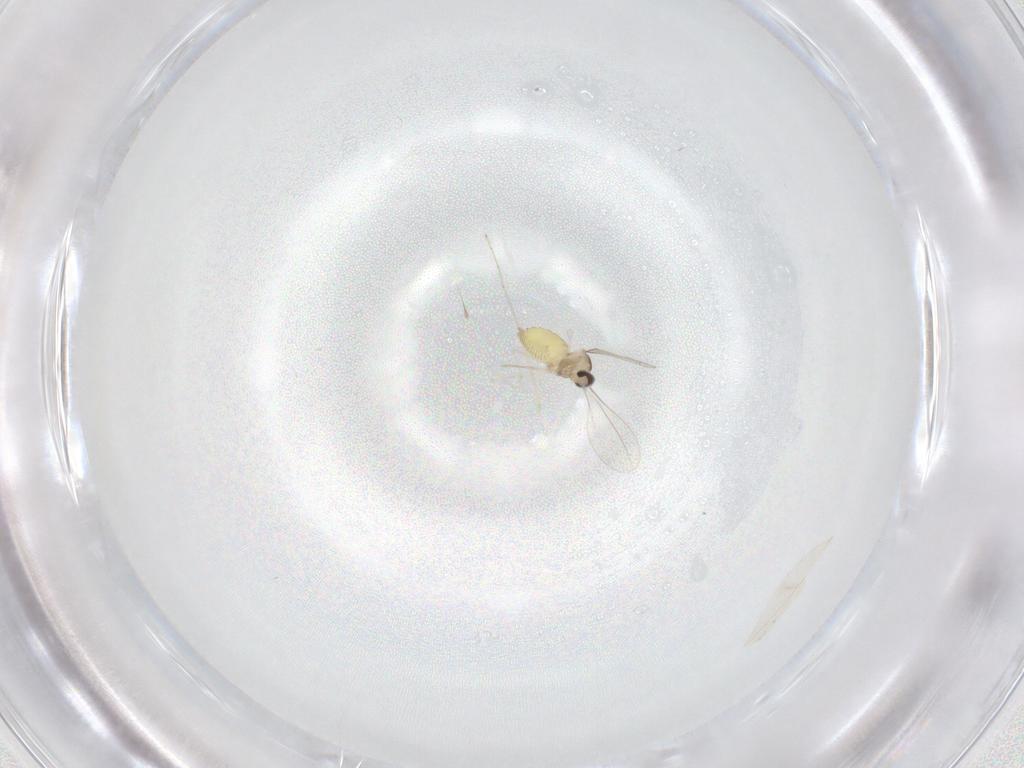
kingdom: Animalia
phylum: Arthropoda
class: Insecta
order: Diptera
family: Cecidomyiidae
